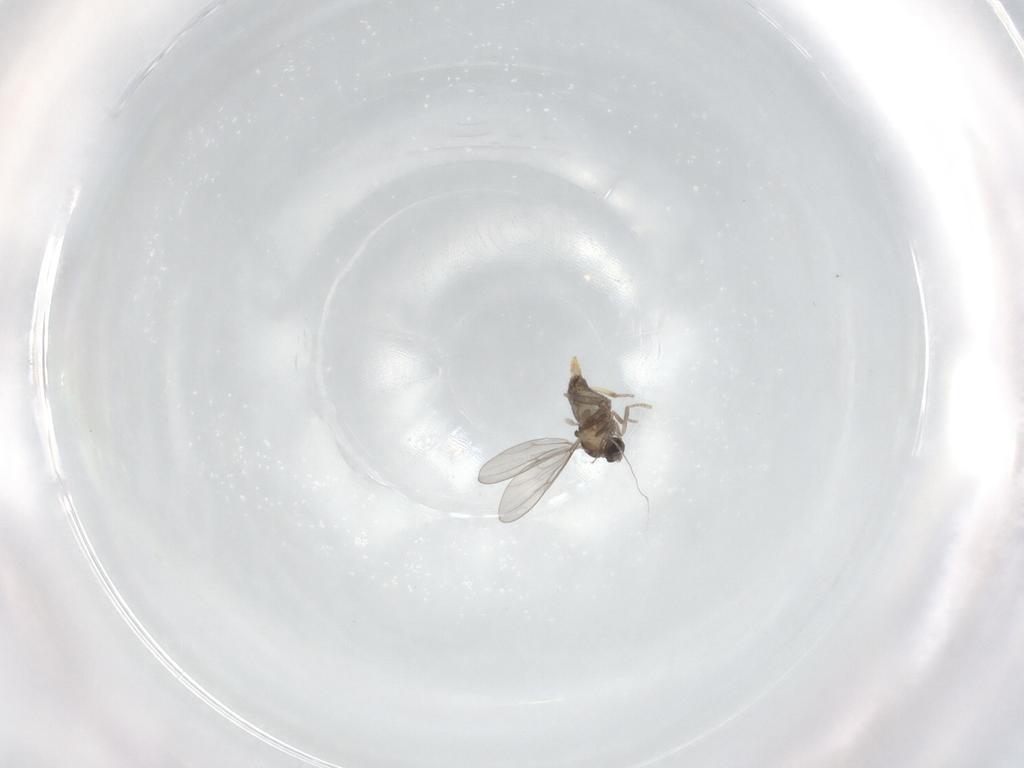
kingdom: Animalia
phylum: Arthropoda
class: Insecta
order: Diptera
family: Cecidomyiidae
